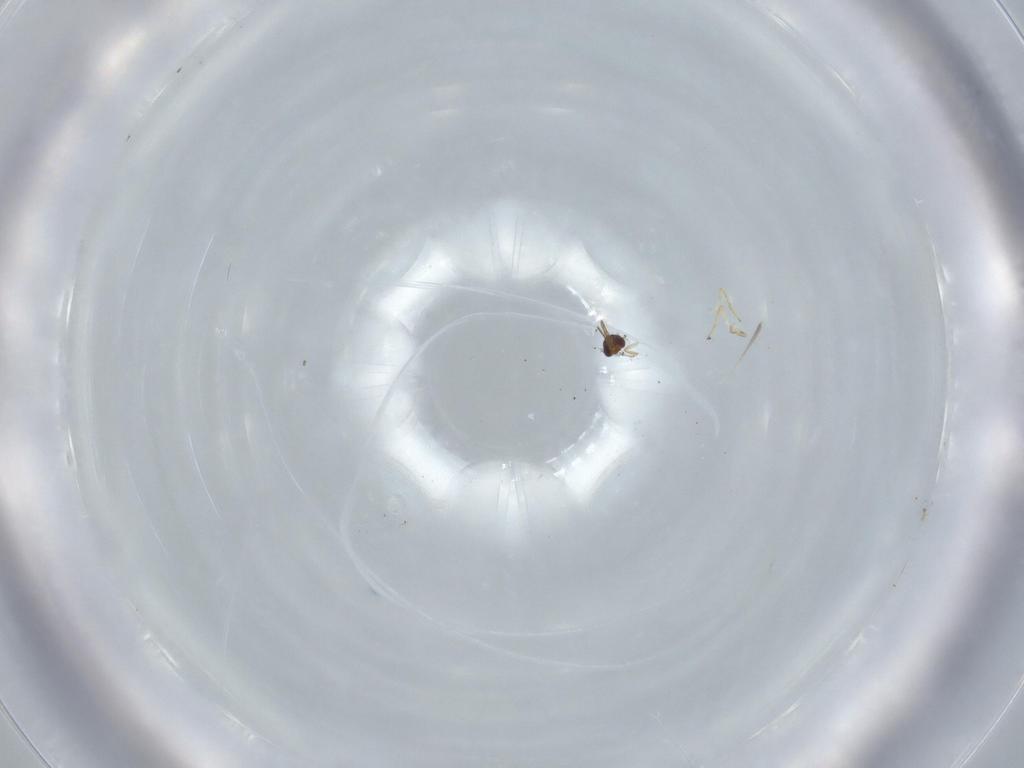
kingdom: Animalia
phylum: Arthropoda
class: Insecta
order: Hymenoptera
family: Aphelinidae
